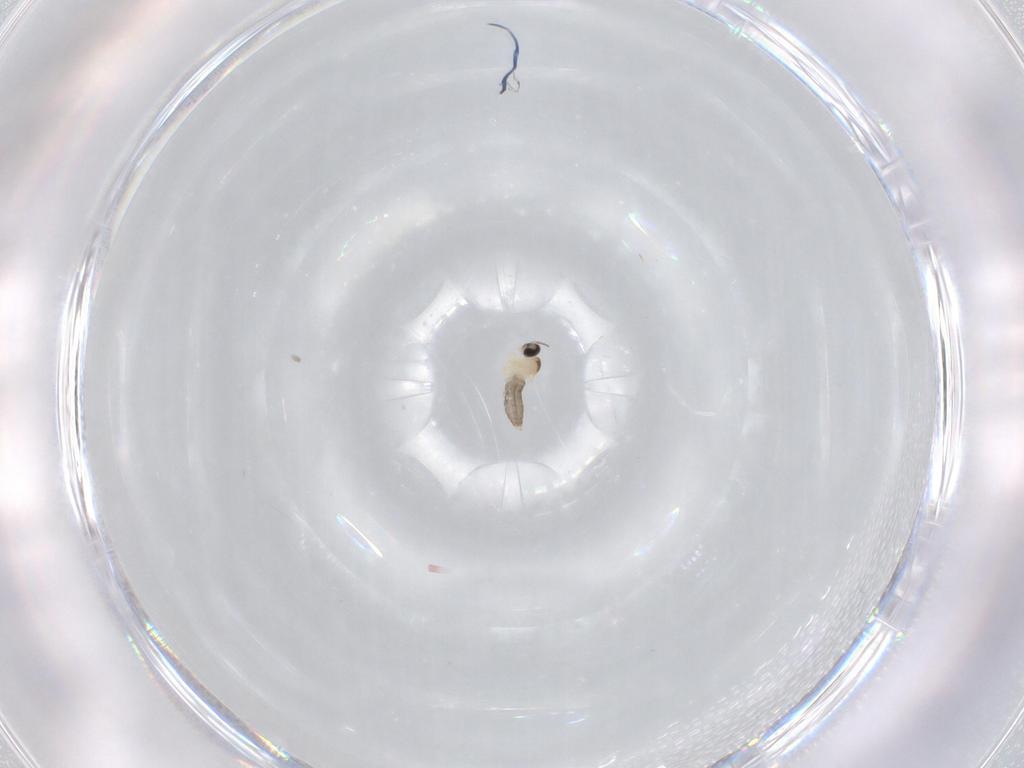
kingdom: Animalia
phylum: Arthropoda
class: Insecta
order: Diptera
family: Cecidomyiidae
